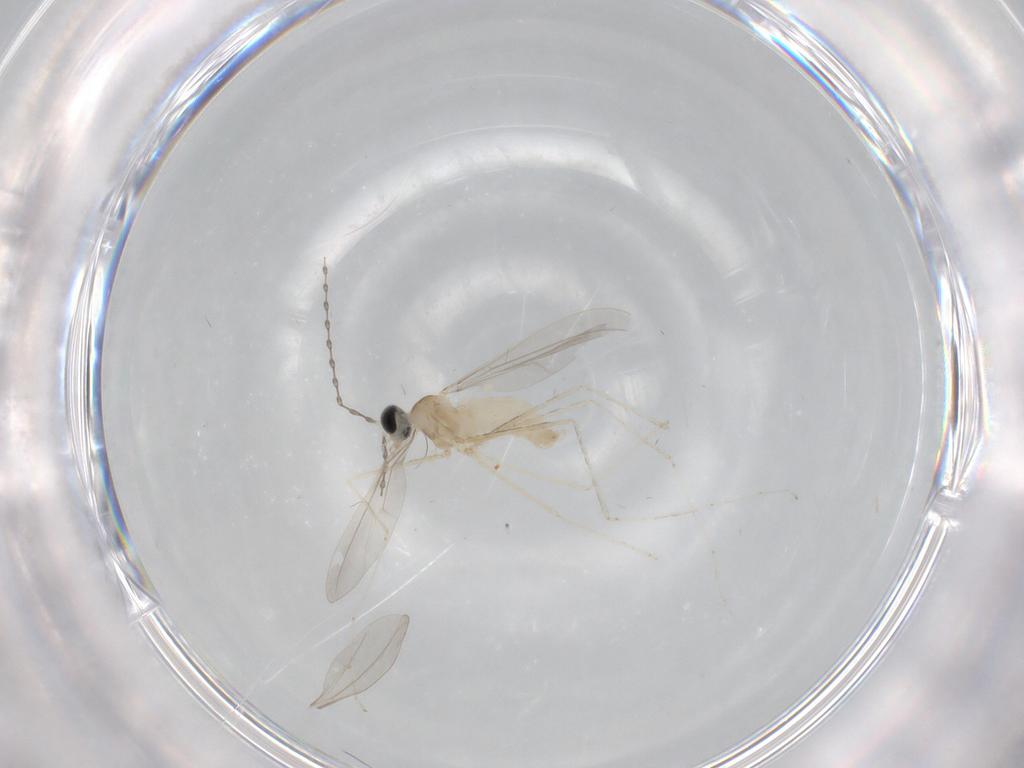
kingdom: Animalia
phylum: Arthropoda
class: Insecta
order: Diptera
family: Cecidomyiidae
